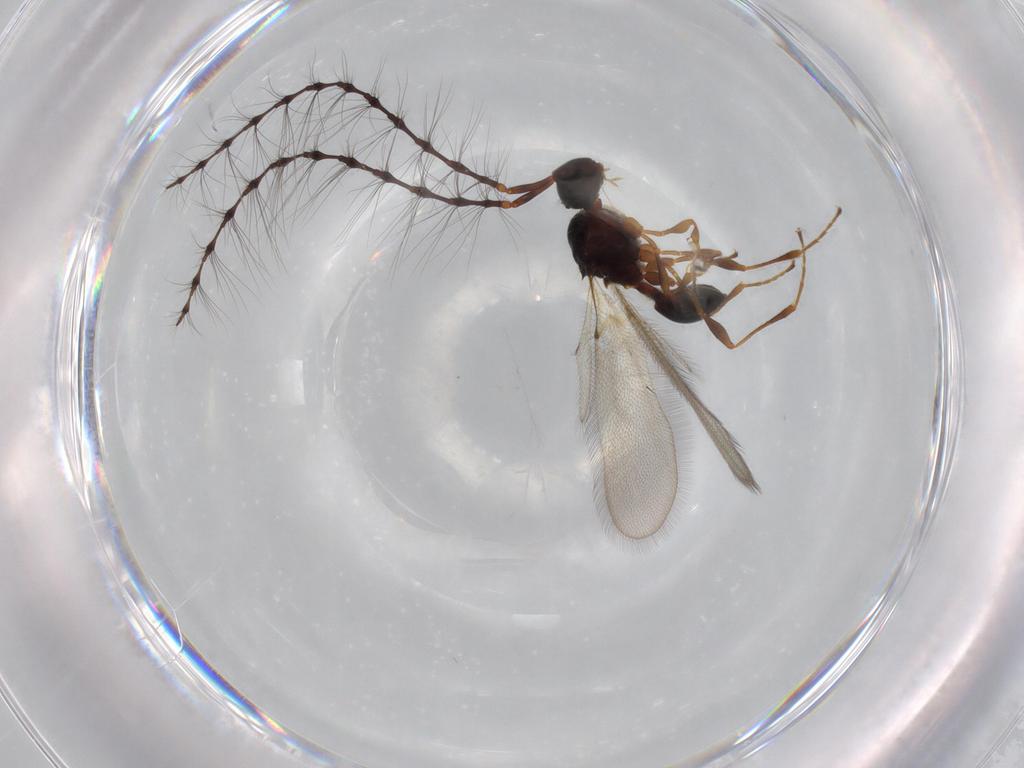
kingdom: Animalia
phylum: Arthropoda
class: Insecta
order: Hymenoptera
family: Diapriidae
